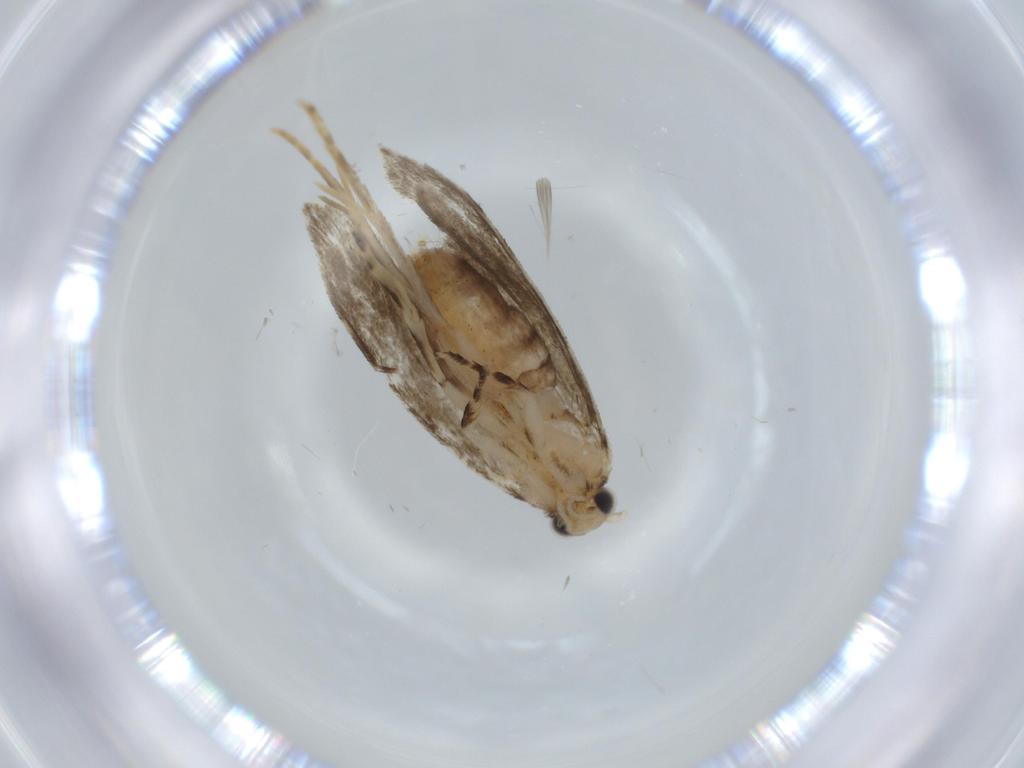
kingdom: Animalia
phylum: Arthropoda
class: Insecta
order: Lepidoptera
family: Tineidae
